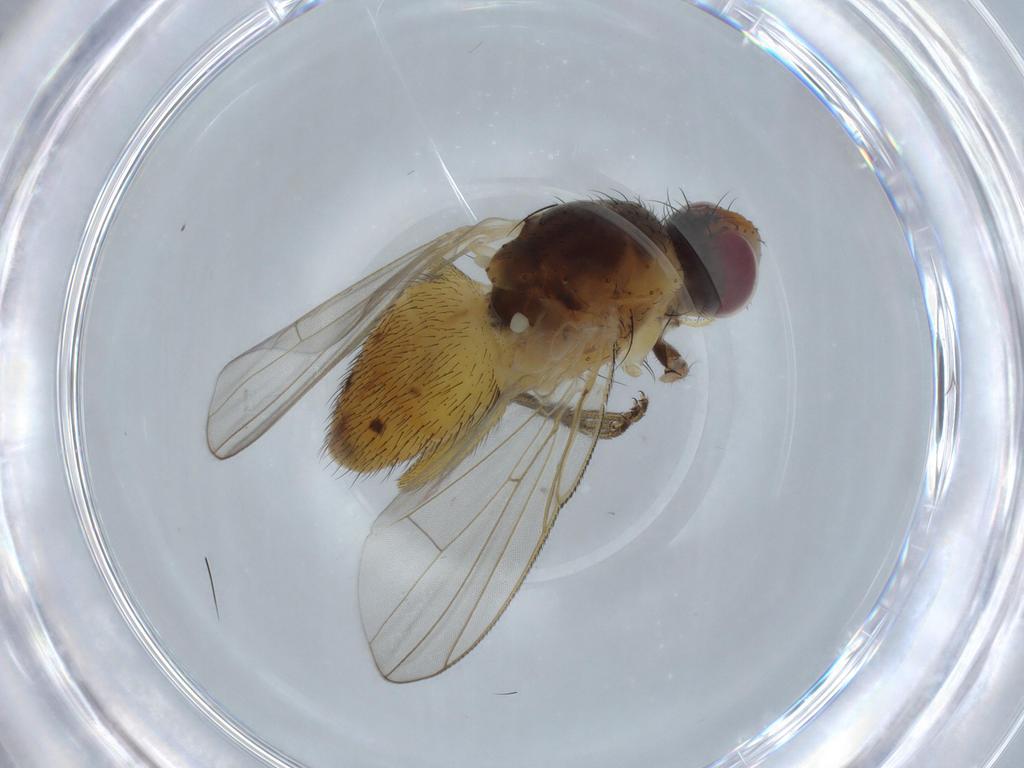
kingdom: Animalia
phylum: Arthropoda
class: Insecta
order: Diptera
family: Muscidae
